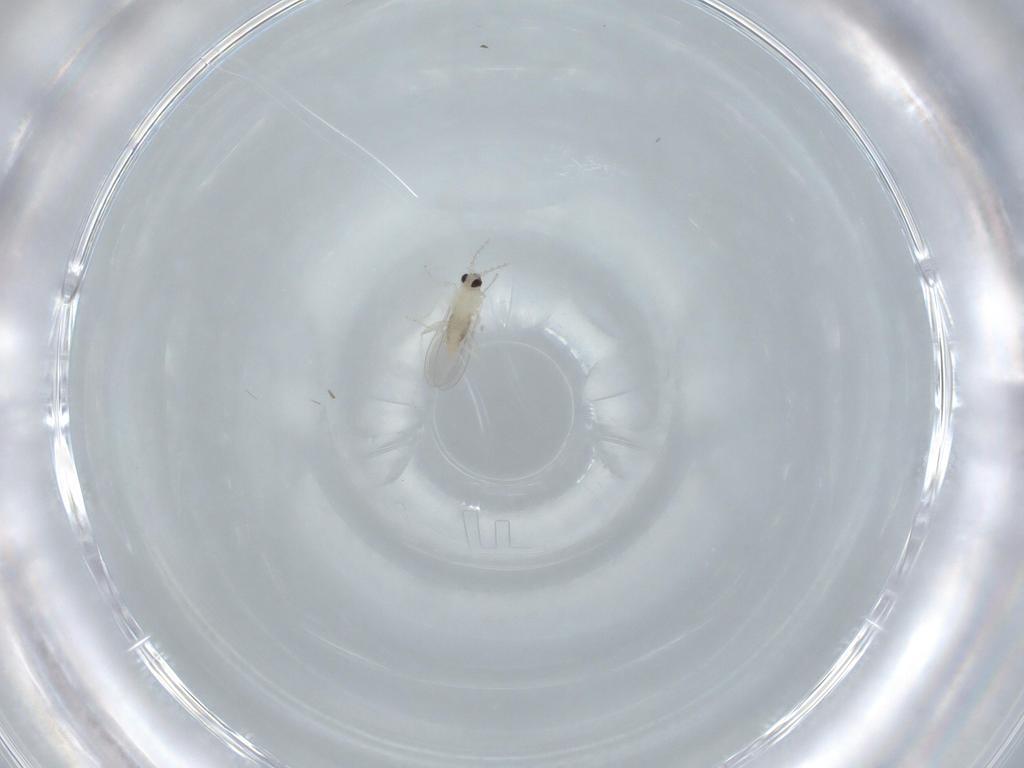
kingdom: Animalia
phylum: Arthropoda
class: Insecta
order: Diptera
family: Cecidomyiidae
